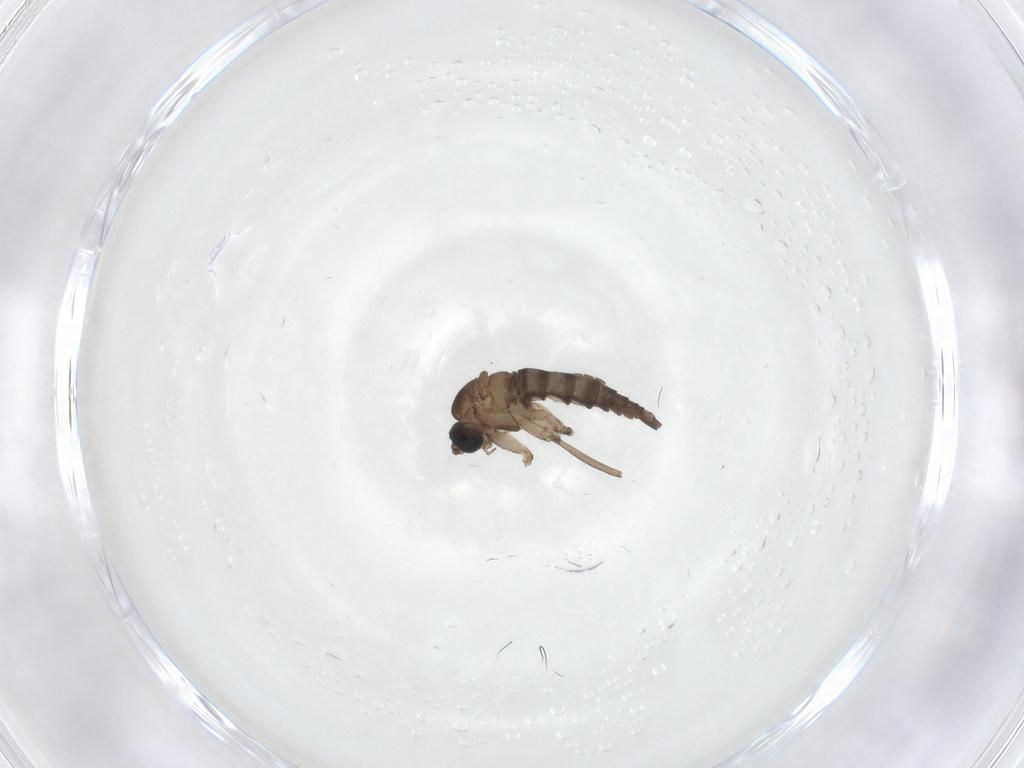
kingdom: Animalia
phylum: Arthropoda
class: Insecta
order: Diptera
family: Sciaridae
